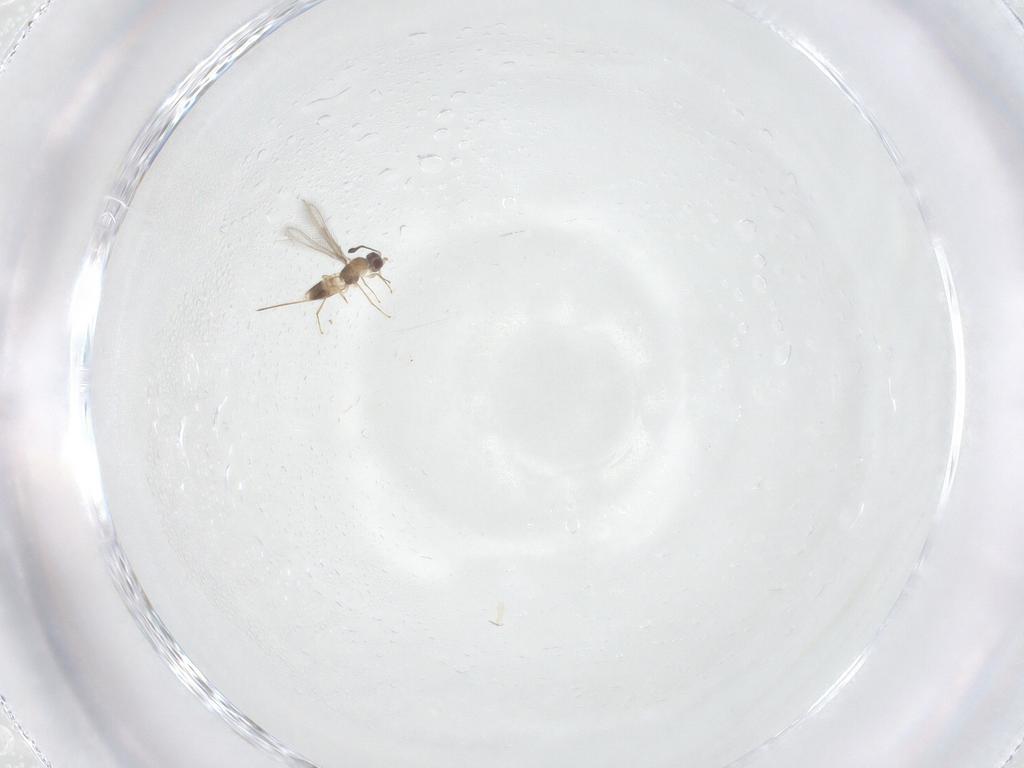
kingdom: Animalia
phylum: Arthropoda
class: Insecta
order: Hymenoptera
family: Mymaridae
